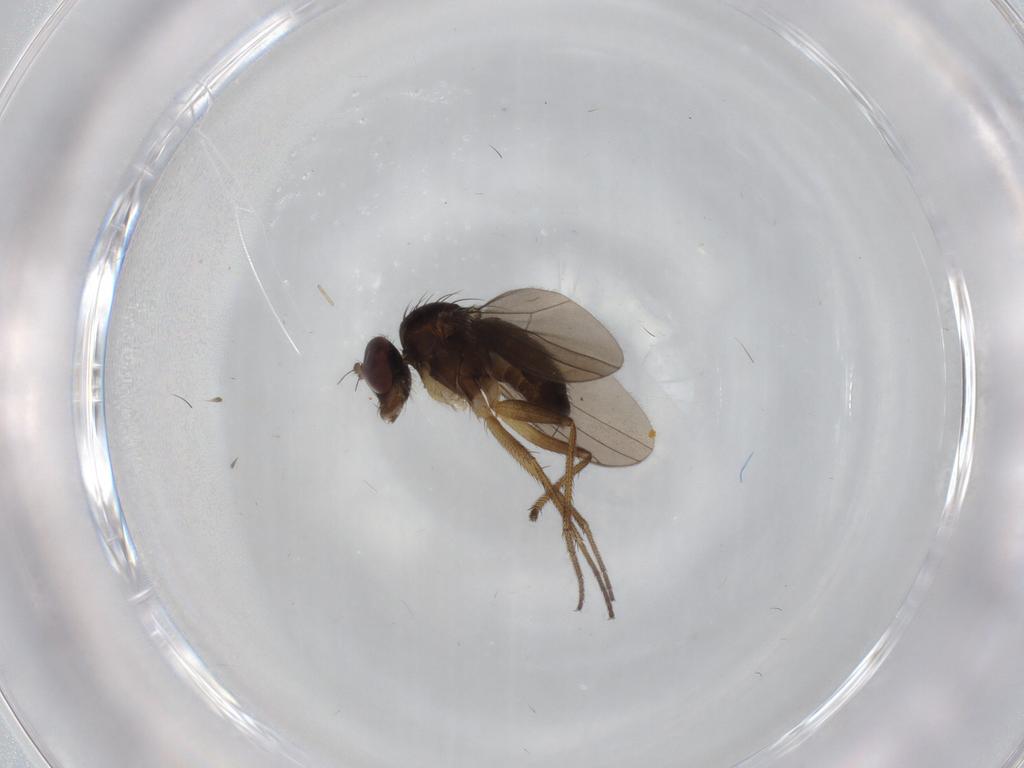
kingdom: Animalia
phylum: Arthropoda
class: Insecta
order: Diptera
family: Dolichopodidae
